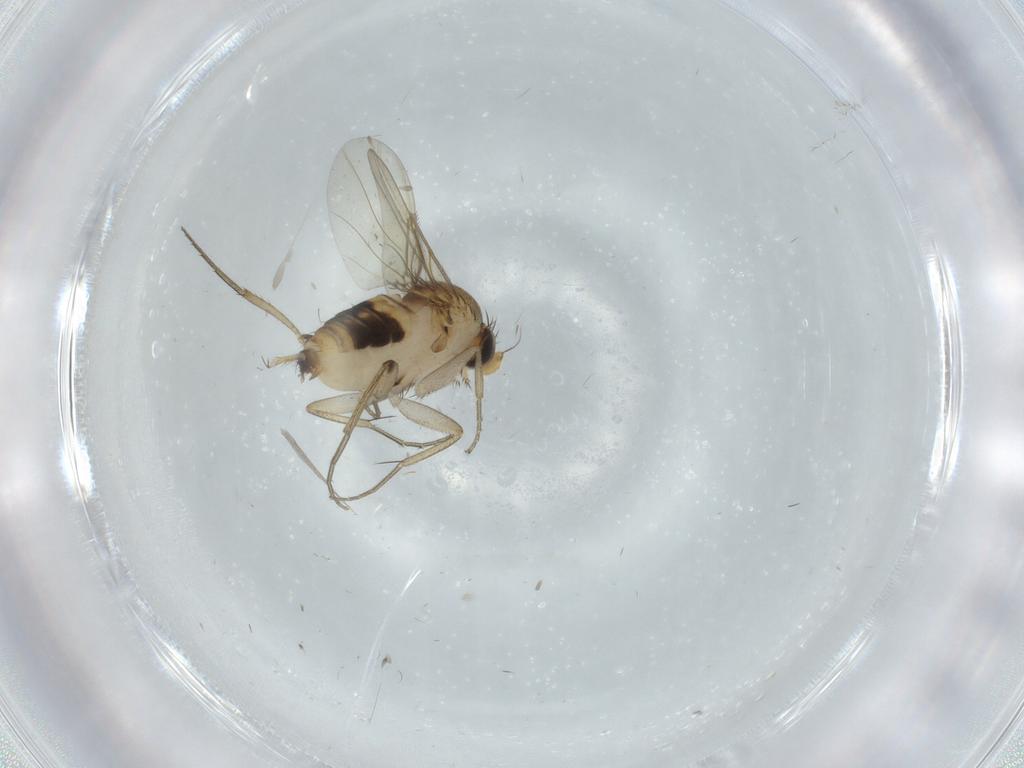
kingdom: Animalia
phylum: Arthropoda
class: Insecta
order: Diptera
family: Phoridae
